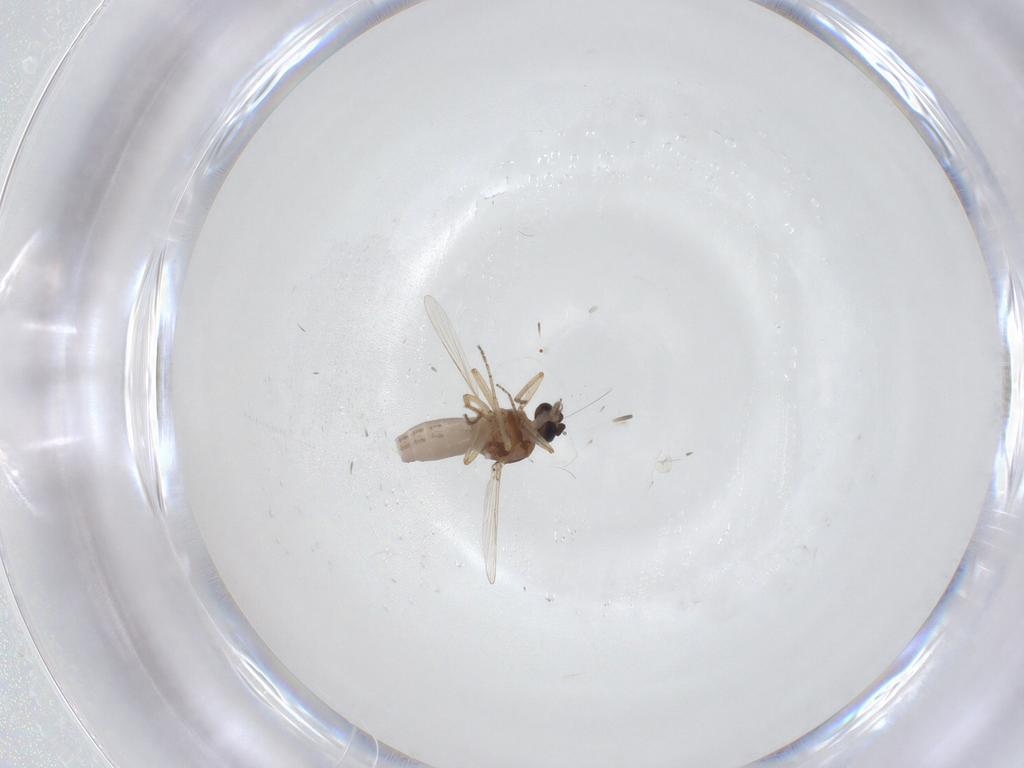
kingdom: Animalia
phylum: Arthropoda
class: Insecta
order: Diptera
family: Ceratopogonidae
